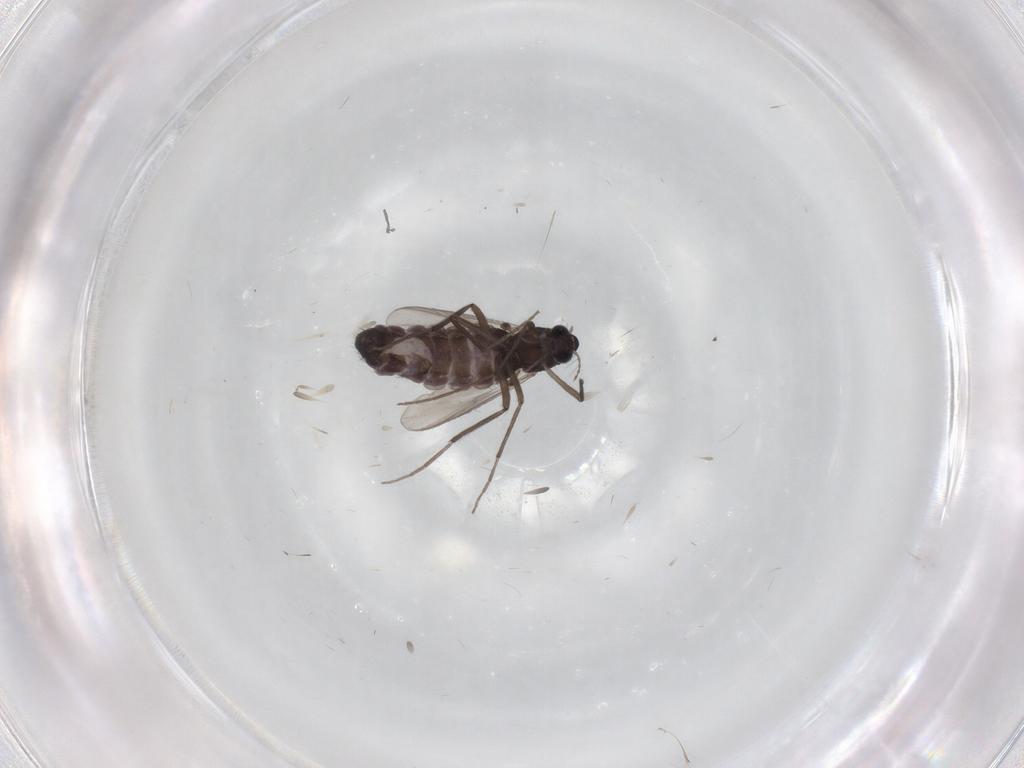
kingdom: Animalia
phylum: Arthropoda
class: Insecta
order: Diptera
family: Chironomidae
